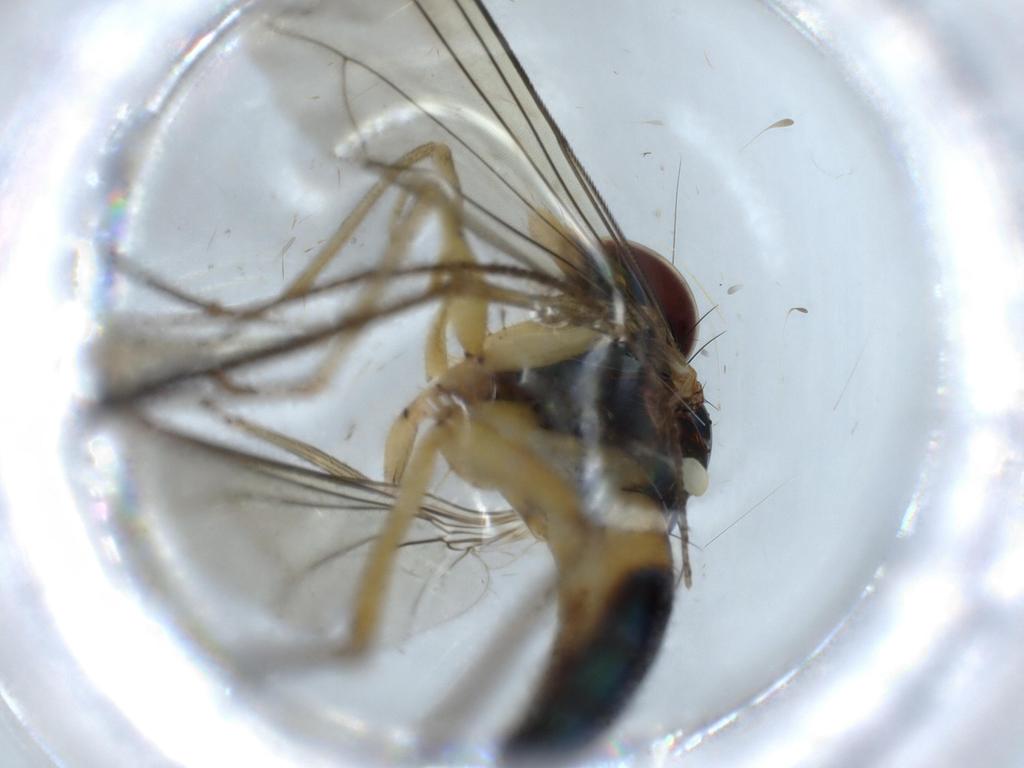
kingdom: Animalia
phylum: Arthropoda
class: Insecta
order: Diptera
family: Dolichopodidae
